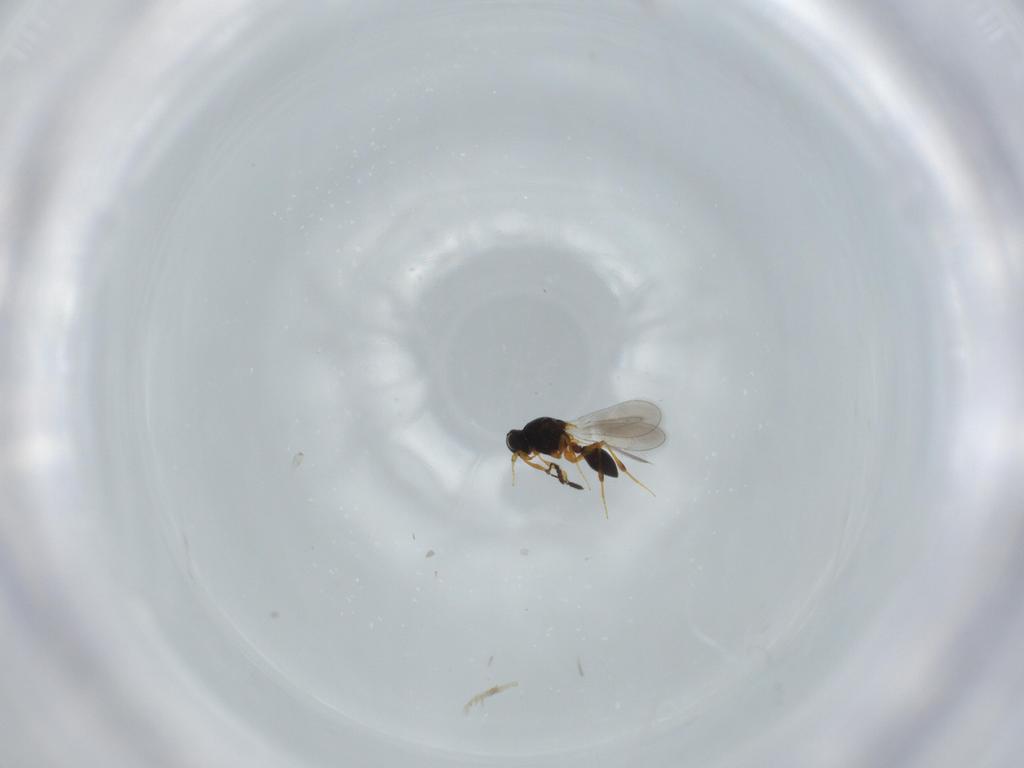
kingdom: Animalia
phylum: Arthropoda
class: Insecta
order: Hymenoptera
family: Platygastridae
